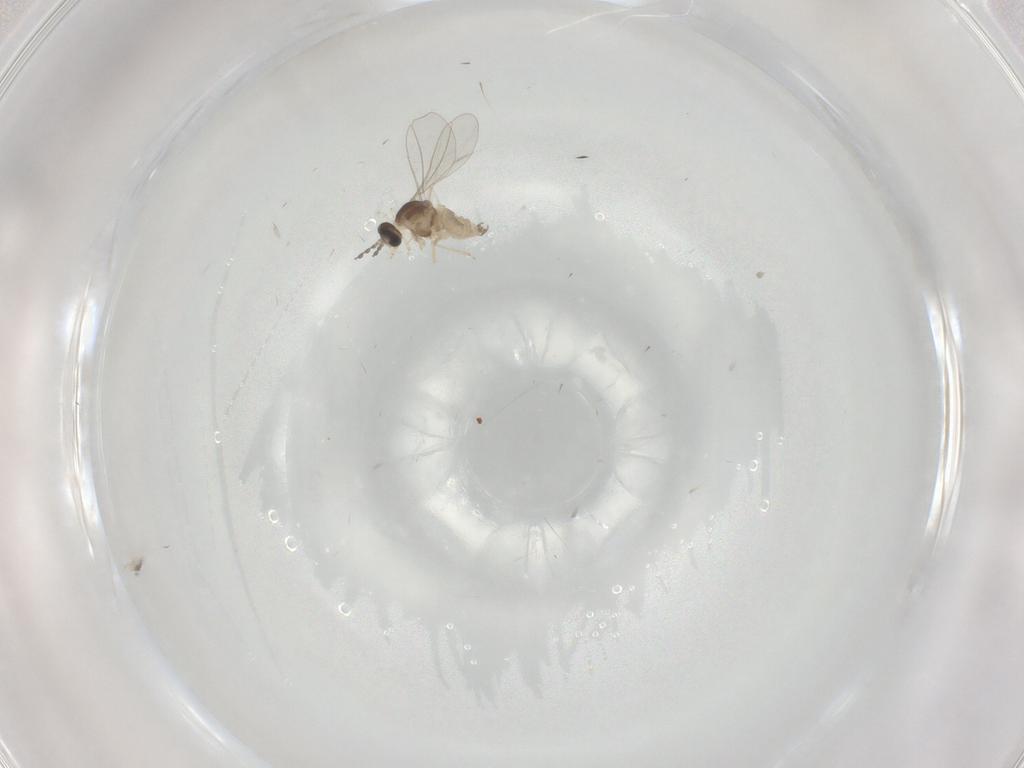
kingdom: Animalia
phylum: Arthropoda
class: Insecta
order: Diptera
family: Cecidomyiidae
